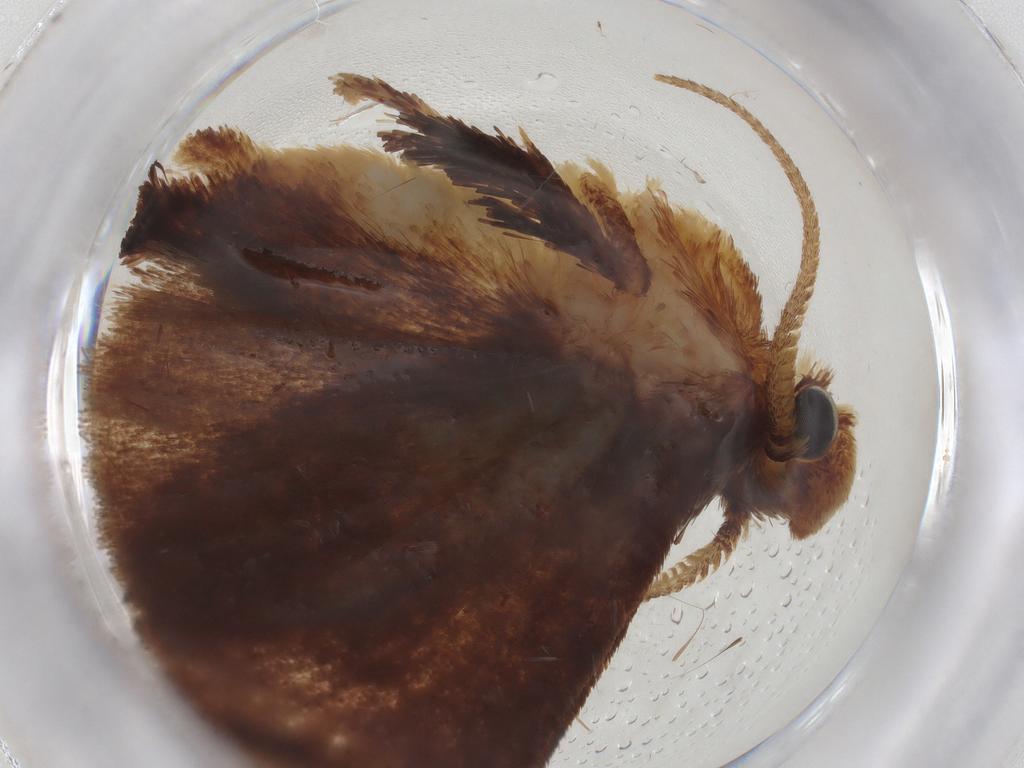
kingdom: Animalia
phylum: Arthropoda
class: Insecta
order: Lepidoptera
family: Limacodidae
